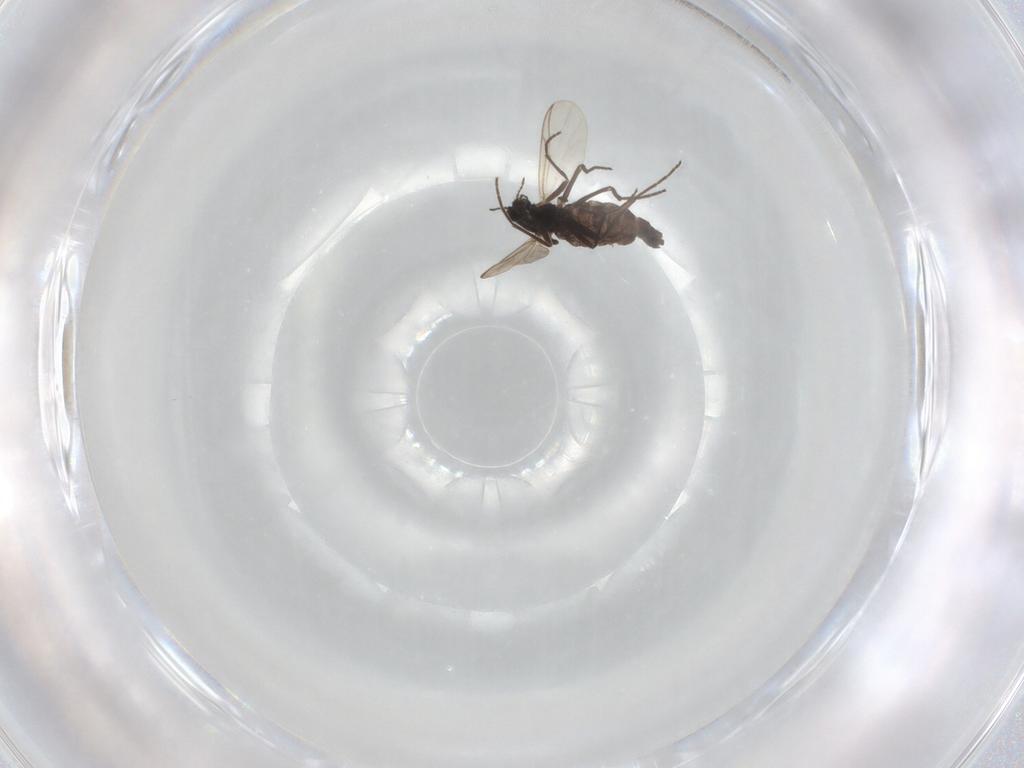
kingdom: Animalia
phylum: Arthropoda
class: Insecta
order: Diptera
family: Chironomidae
